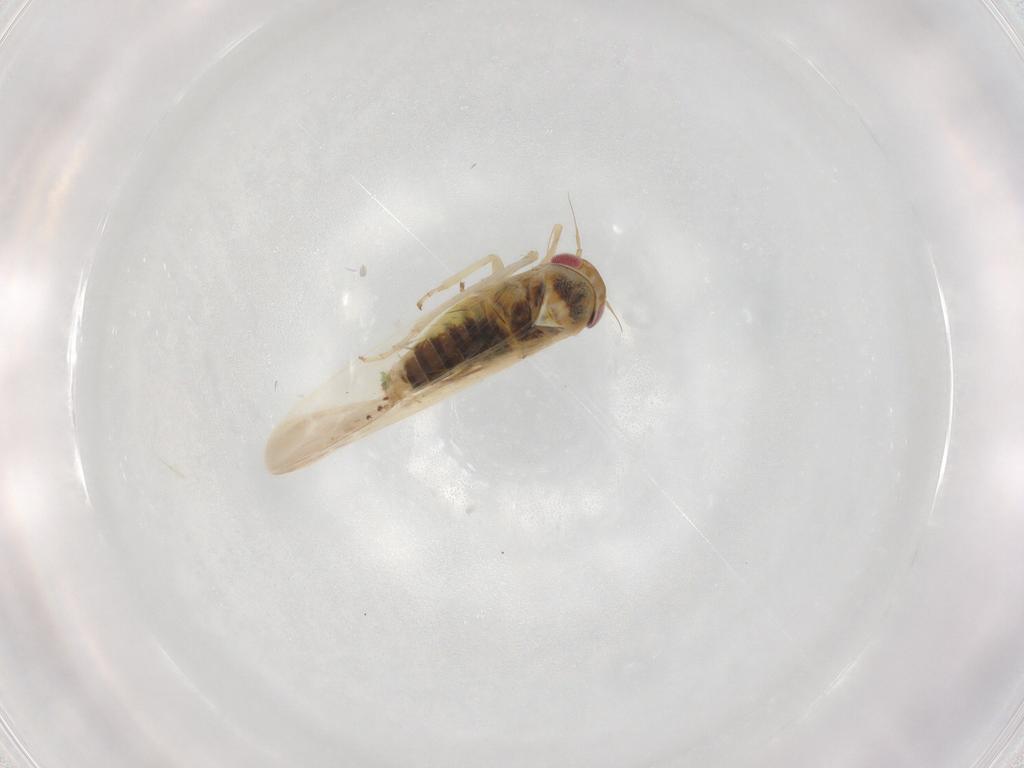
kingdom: Animalia
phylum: Arthropoda
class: Insecta
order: Hemiptera
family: Cicadellidae
